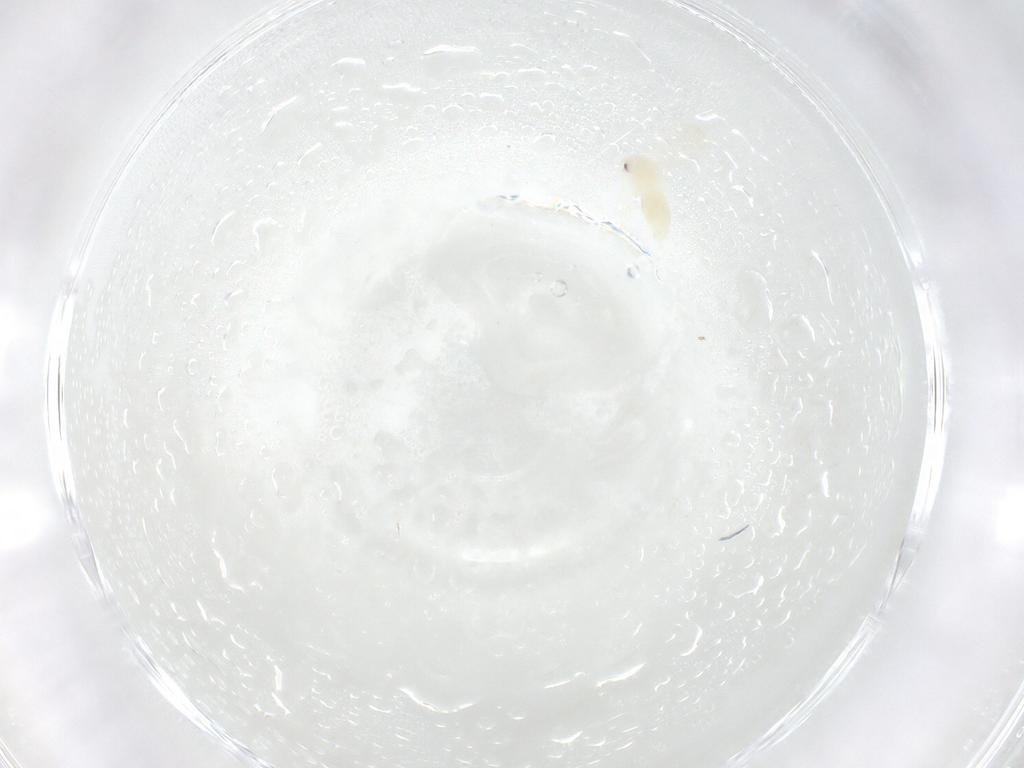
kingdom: Animalia
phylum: Arthropoda
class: Insecta
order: Hemiptera
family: Aleyrodidae
